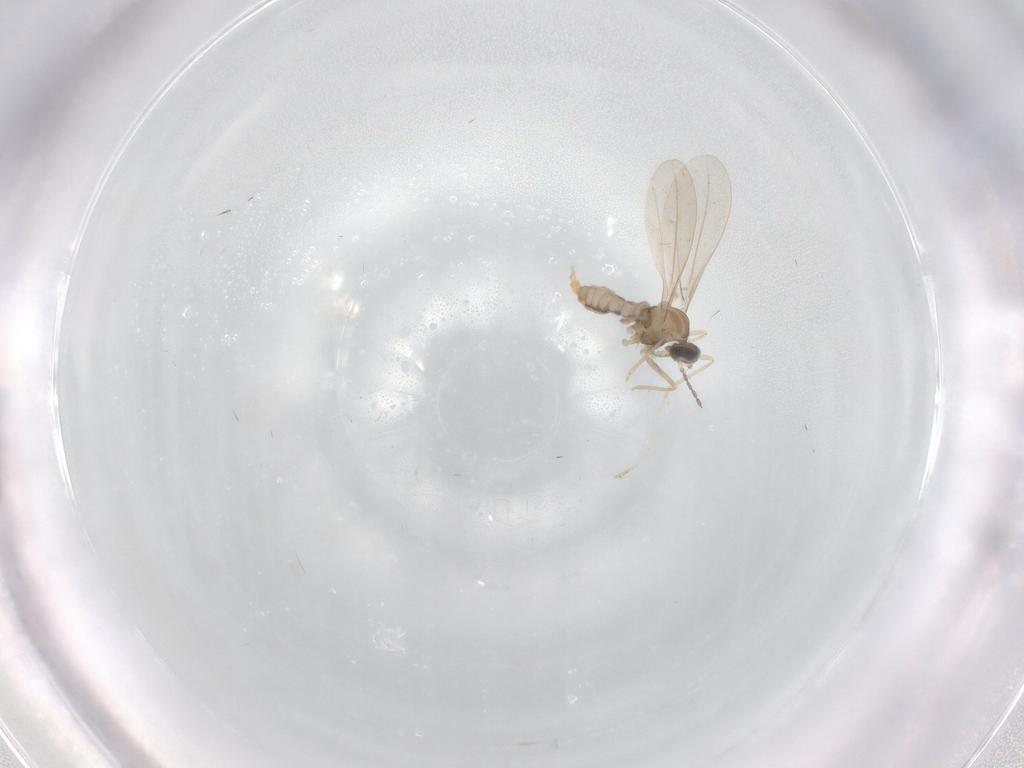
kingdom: Animalia
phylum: Arthropoda
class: Insecta
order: Diptera
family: Cecidomyiidae
